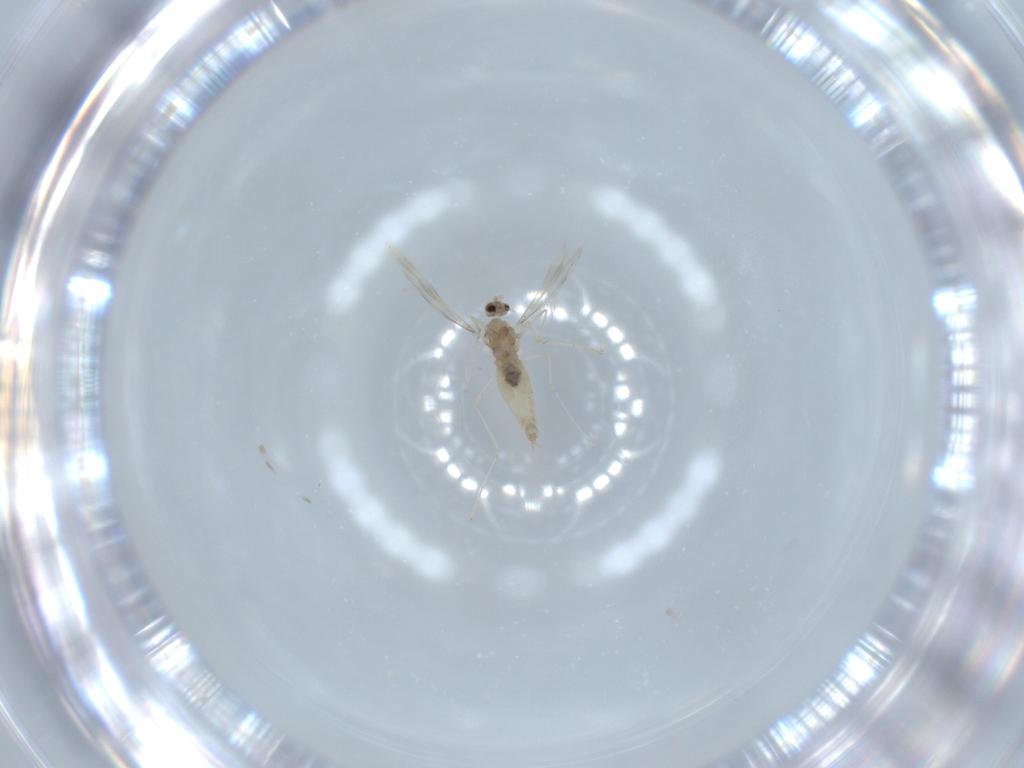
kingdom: Animalia
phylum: Arthropoda
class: Insecta
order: Diptera
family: Cecidomyiidae
